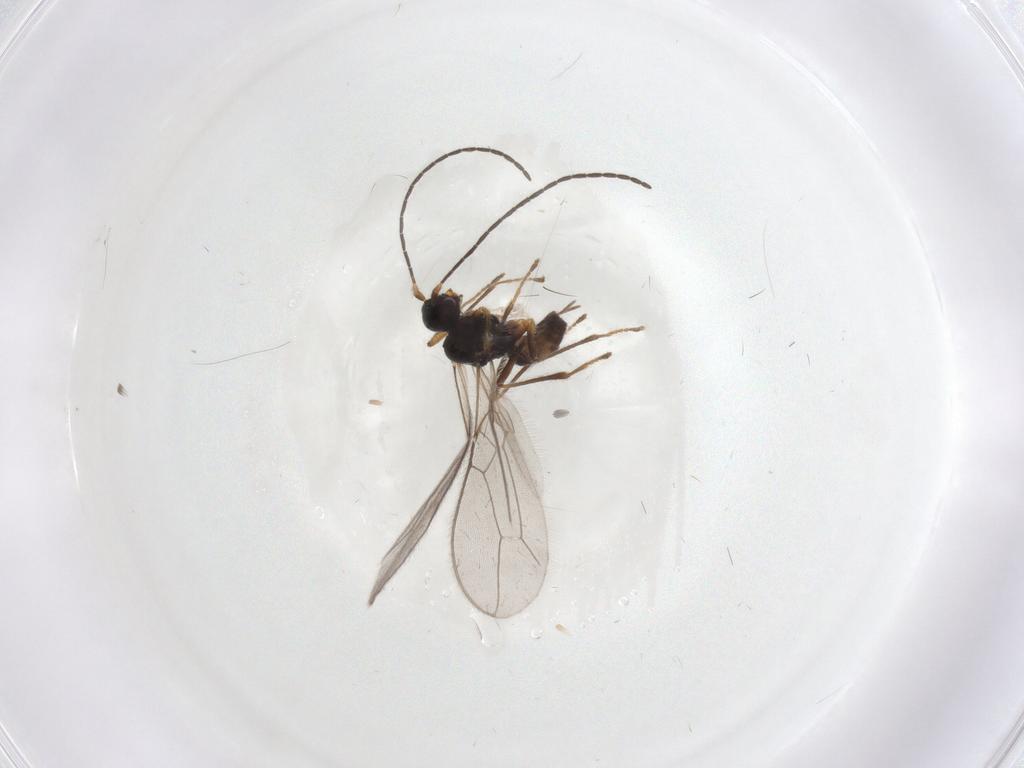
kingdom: Animalia
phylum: Arthropoda
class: Insecta
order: Hymenoptera
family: Braconidae
